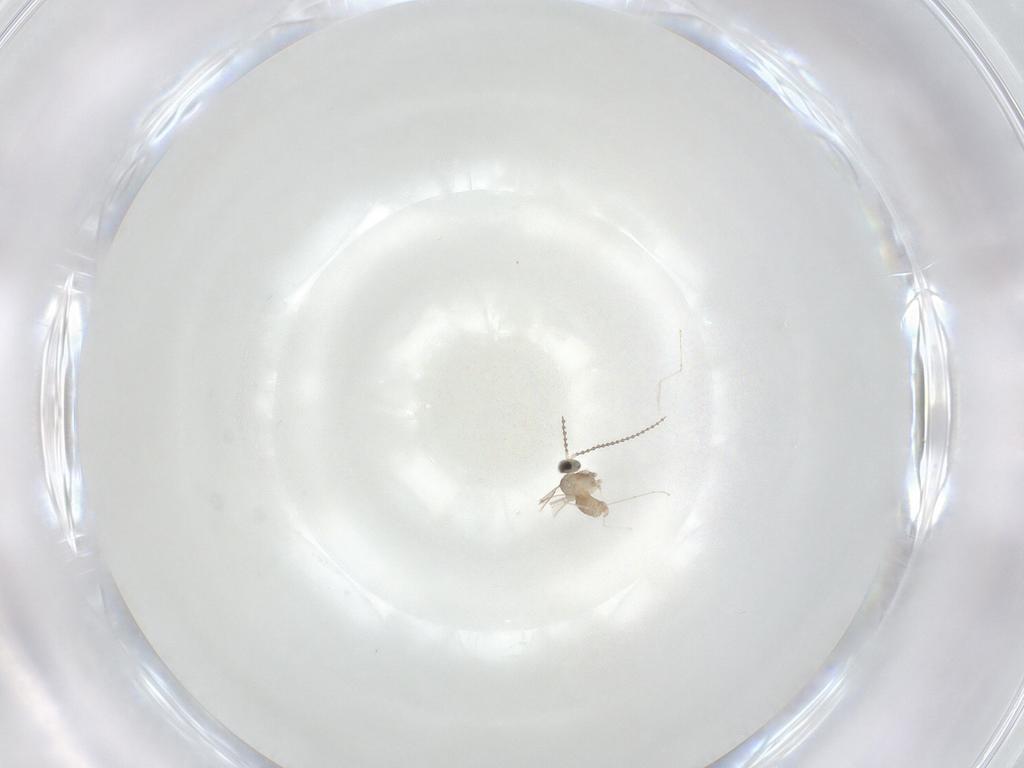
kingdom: Animalia
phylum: Arthropoda
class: Insecta
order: Diptera
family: Cecidomyiidae
